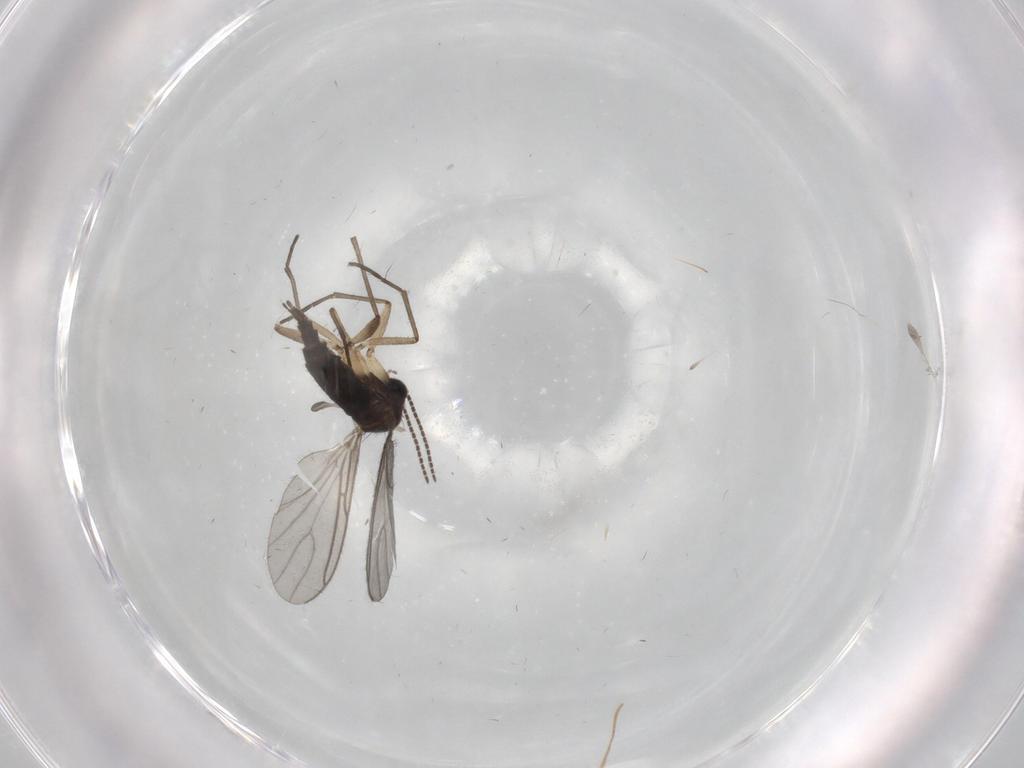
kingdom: Animalia
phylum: Arthropoda
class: Insecta
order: Diptera
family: Sciaridae
